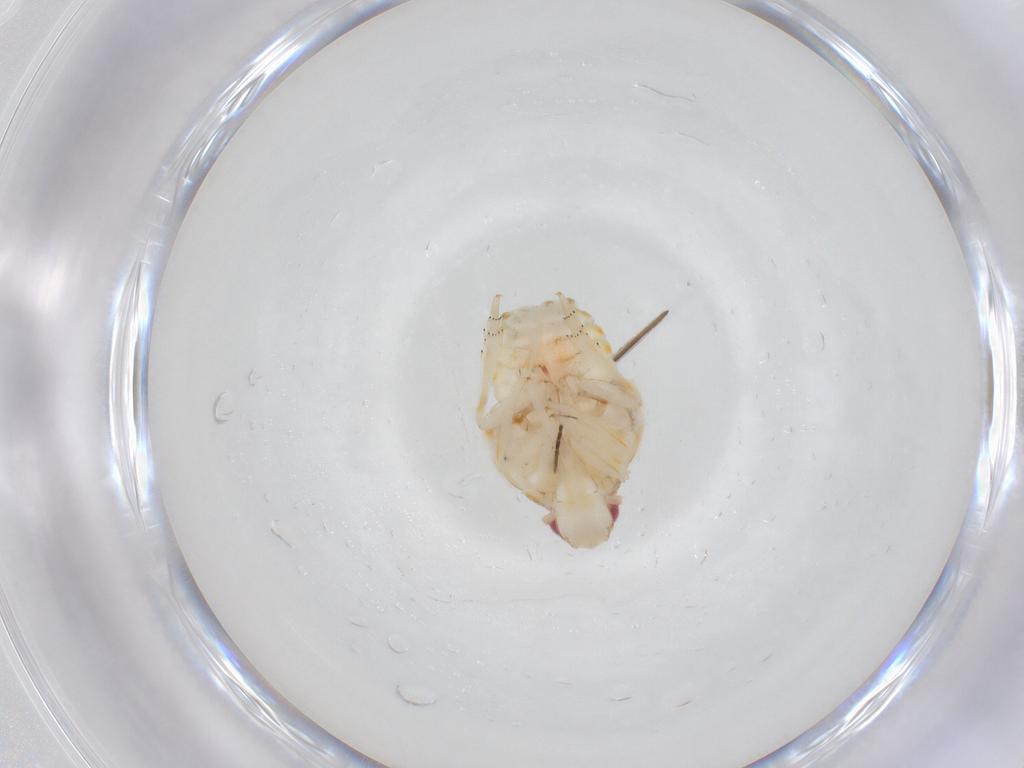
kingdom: Animalia
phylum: Arthropoda
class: Insecta
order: Hemiptera
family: Flatidae
